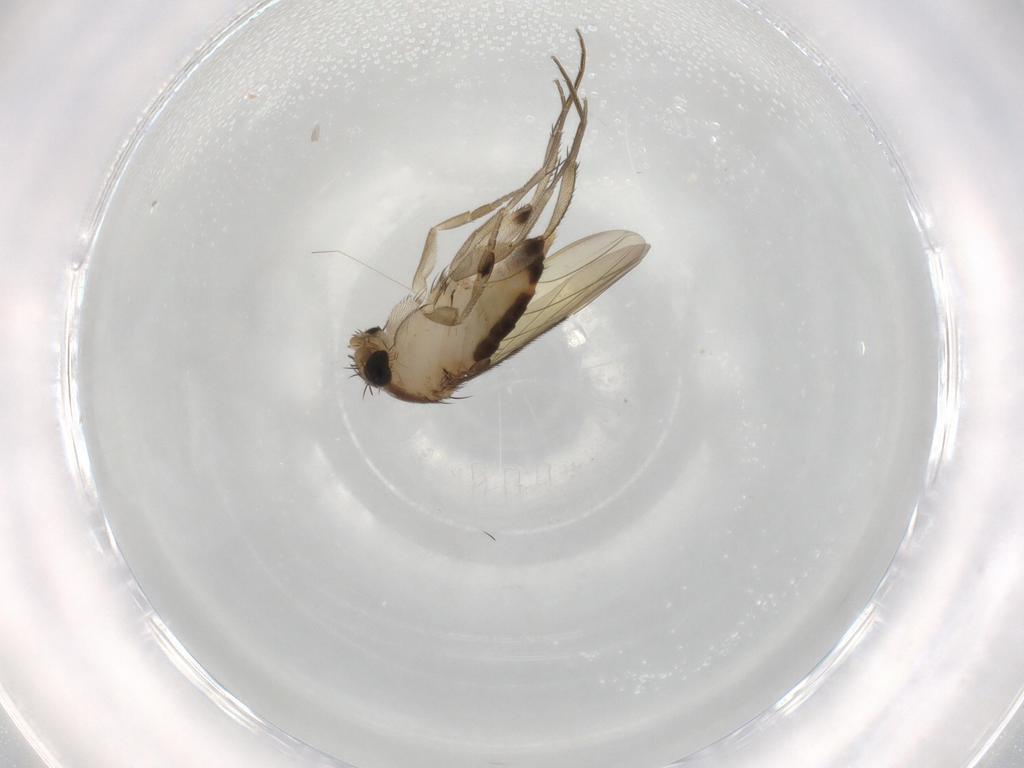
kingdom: Animalia
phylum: Arthropoda
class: Insecta
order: Diptera
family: Phoridae
